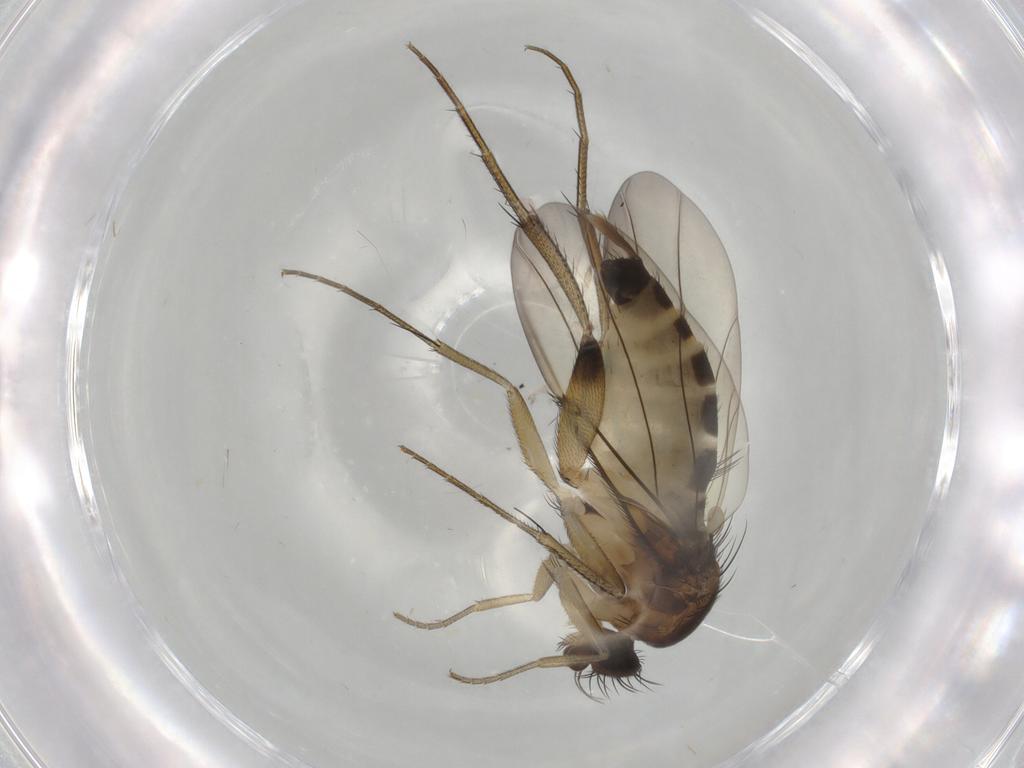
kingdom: Animalia
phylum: Arthropoda
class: Insecta
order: Diptera
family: Phoridae
